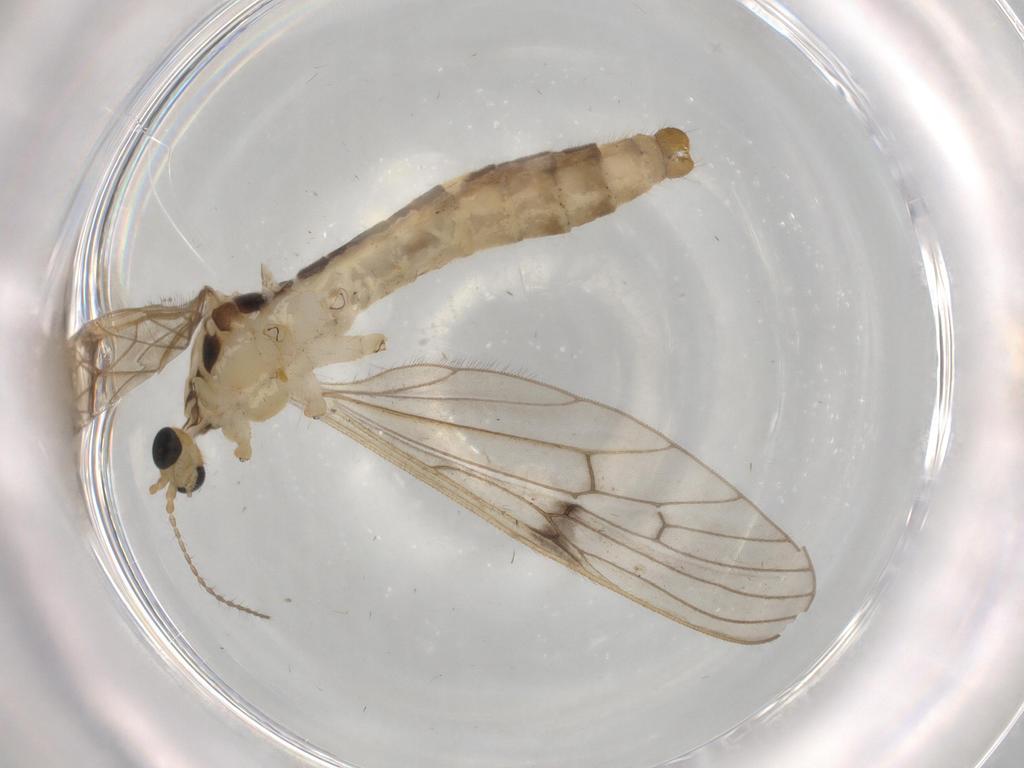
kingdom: Animalia
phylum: Arthropoda
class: Insecta
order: Diptera
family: Phoridae
